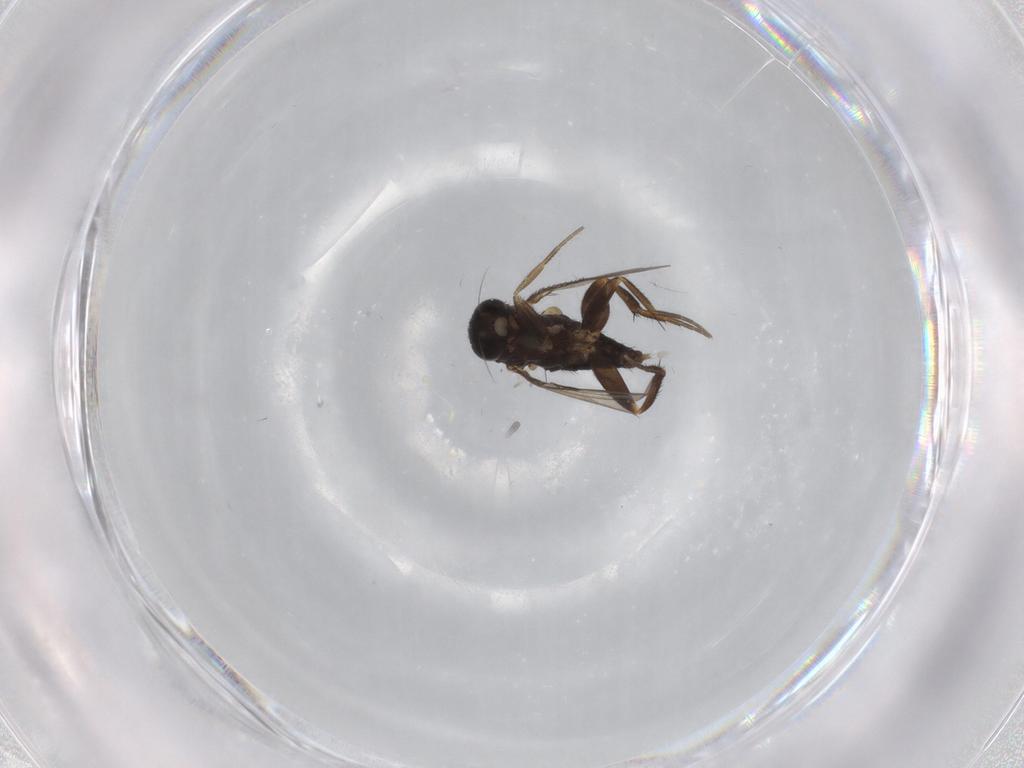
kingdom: Animalia
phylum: Arthropoda
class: Insecta
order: Diptera
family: Phoridae
